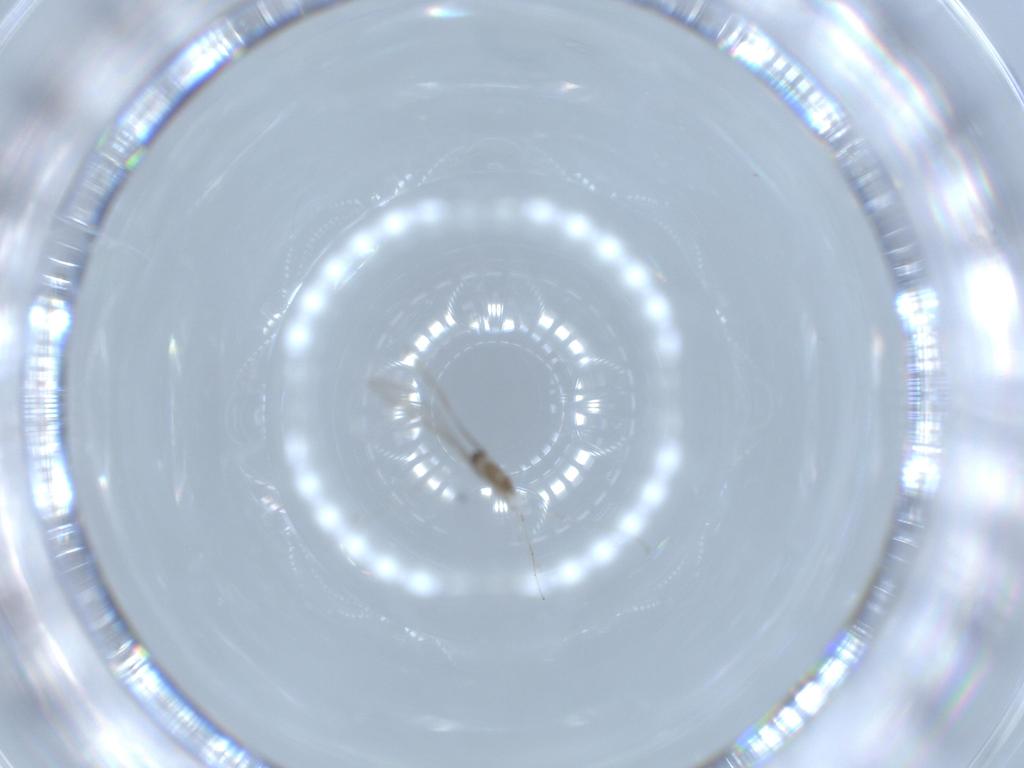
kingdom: Animalia
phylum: Arthropoda
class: Insecta
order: Diptera
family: Cecidomyiidae
